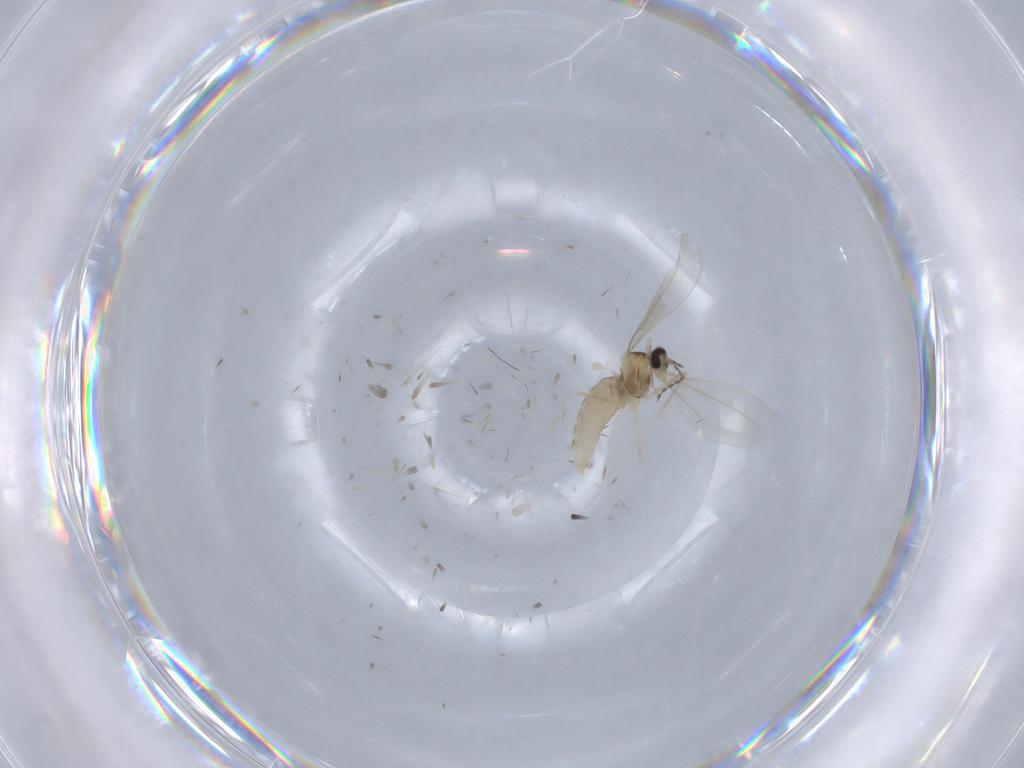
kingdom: Animalia
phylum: Arthropoda
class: Insecta
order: Diptera
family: Cecidomyiidae
